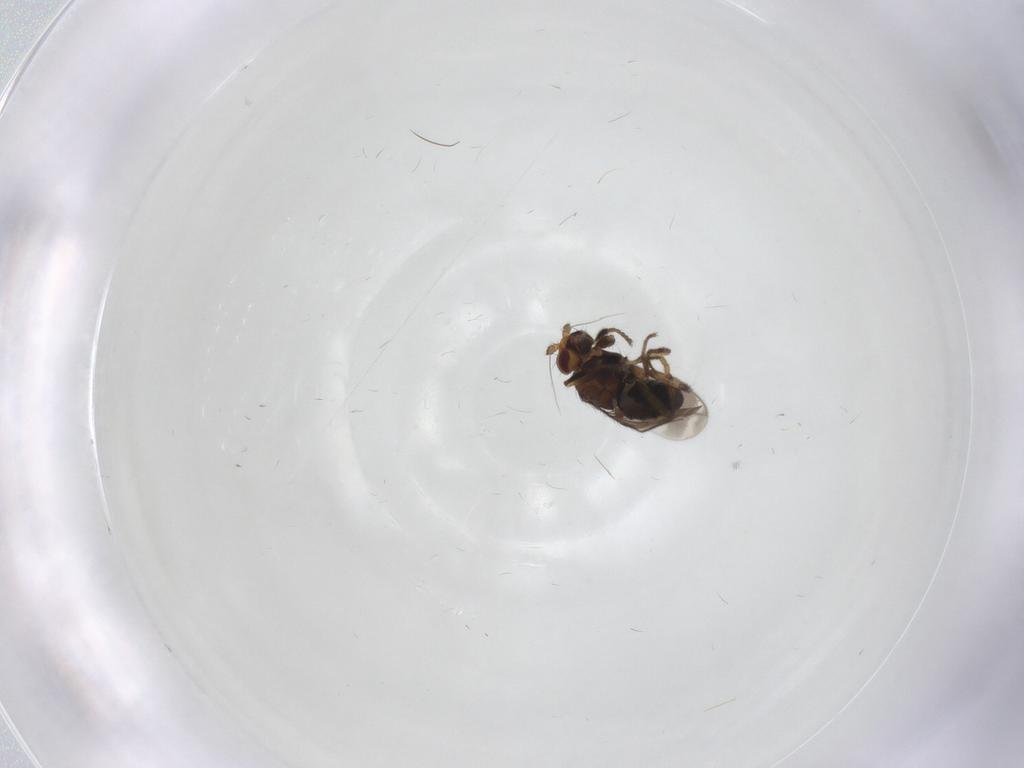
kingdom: Animalia
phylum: Arthropoda
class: Insecta
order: Diptera
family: Sphaeroceridae
